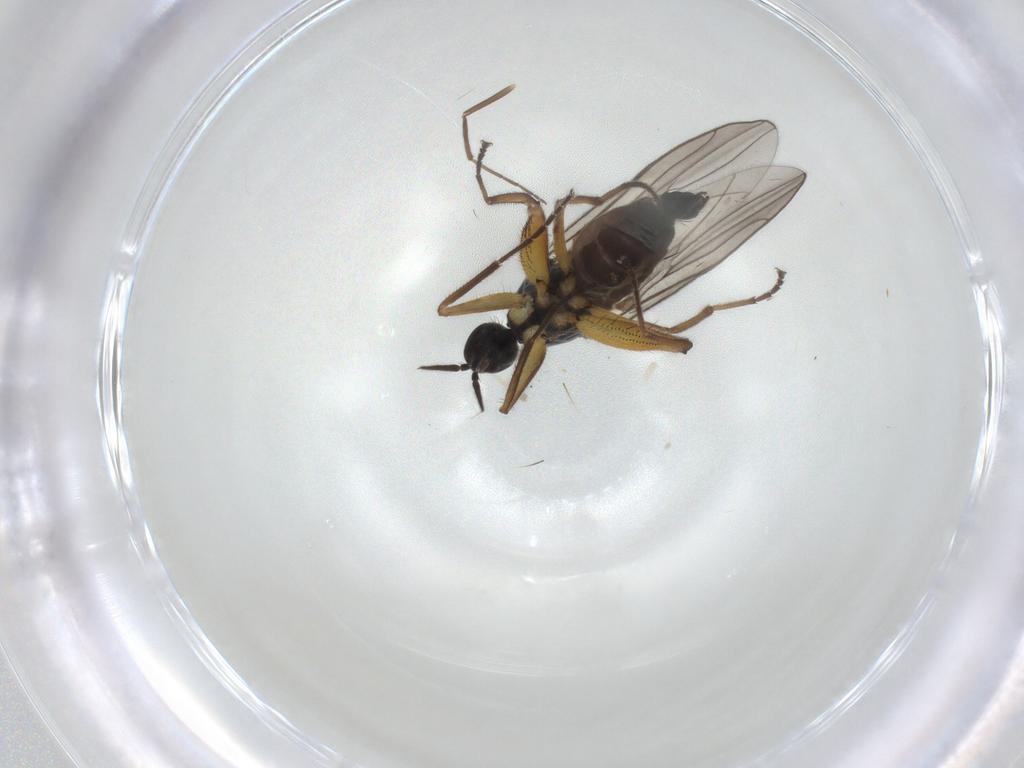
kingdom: Animalia
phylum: Arthropoda
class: Insecta
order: Diptera
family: Hybotidae
